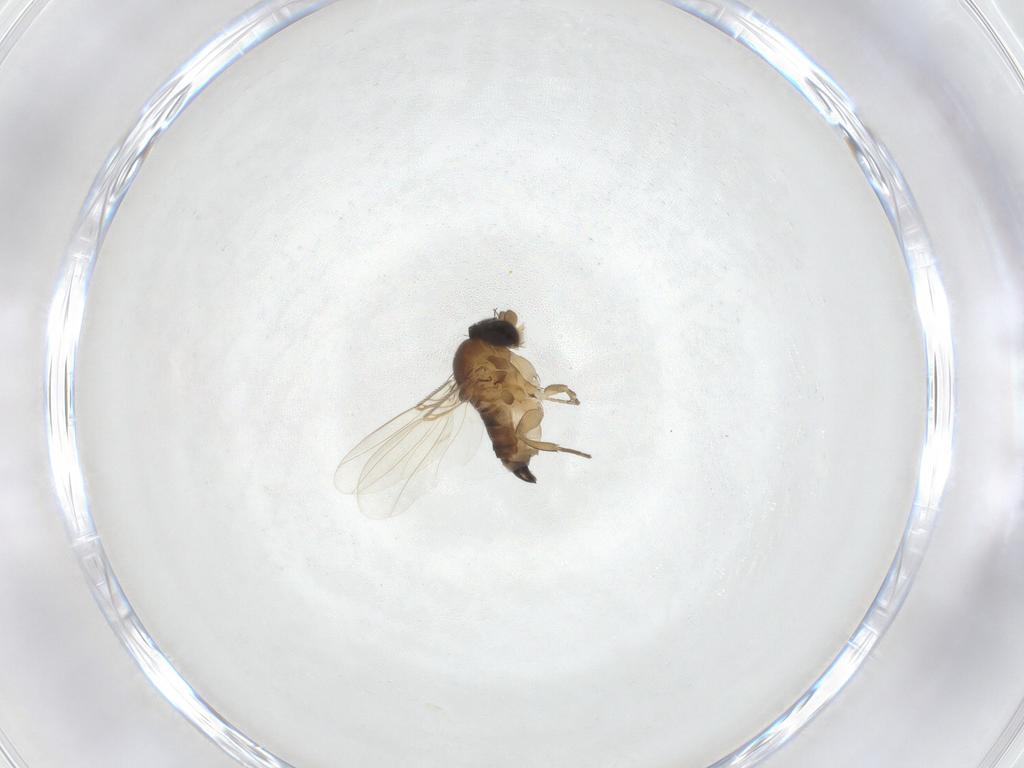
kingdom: Animalia
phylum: Arthropoda
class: Insecta
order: Diptera
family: Phoridae
